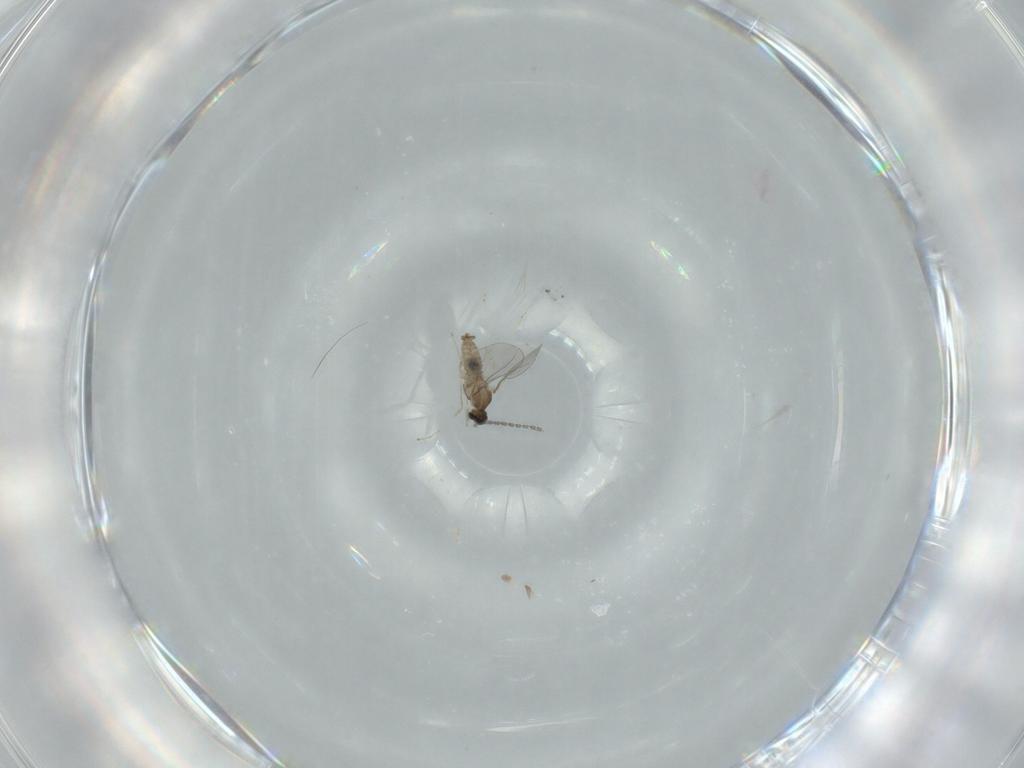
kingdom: Animalia
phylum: Arthropoda
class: Insecta
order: Diptera
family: Cecidomyiidae
